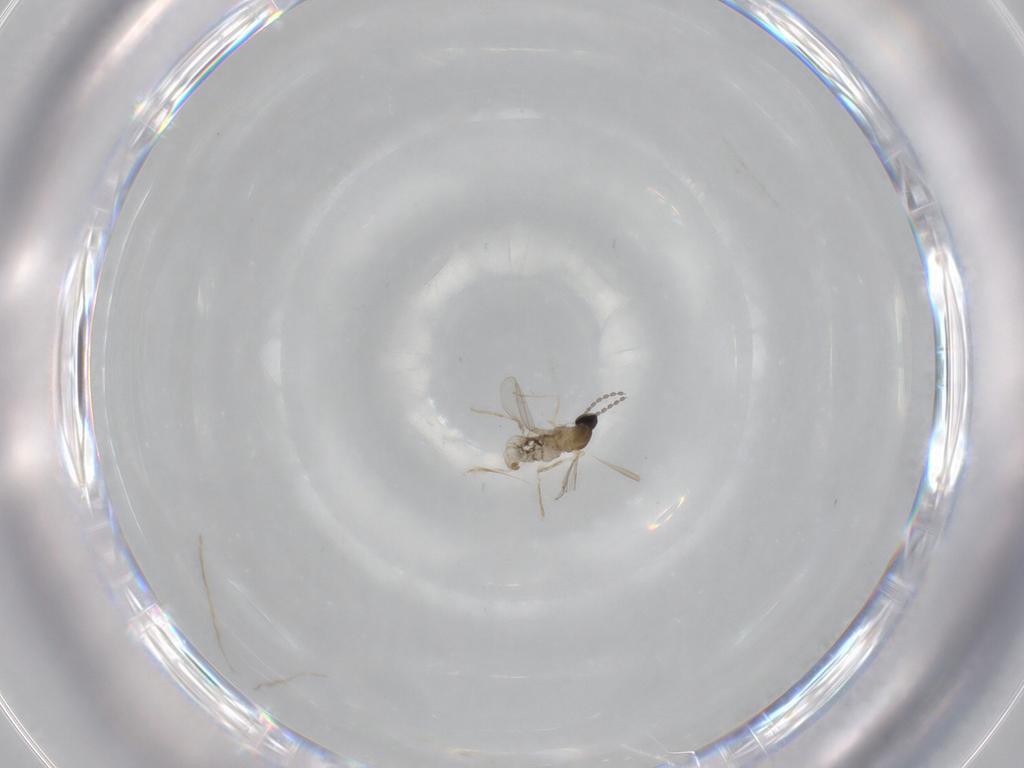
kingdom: Animalia
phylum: Arthropoda
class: Insecta
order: Diptera
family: Cecidomyiidae
